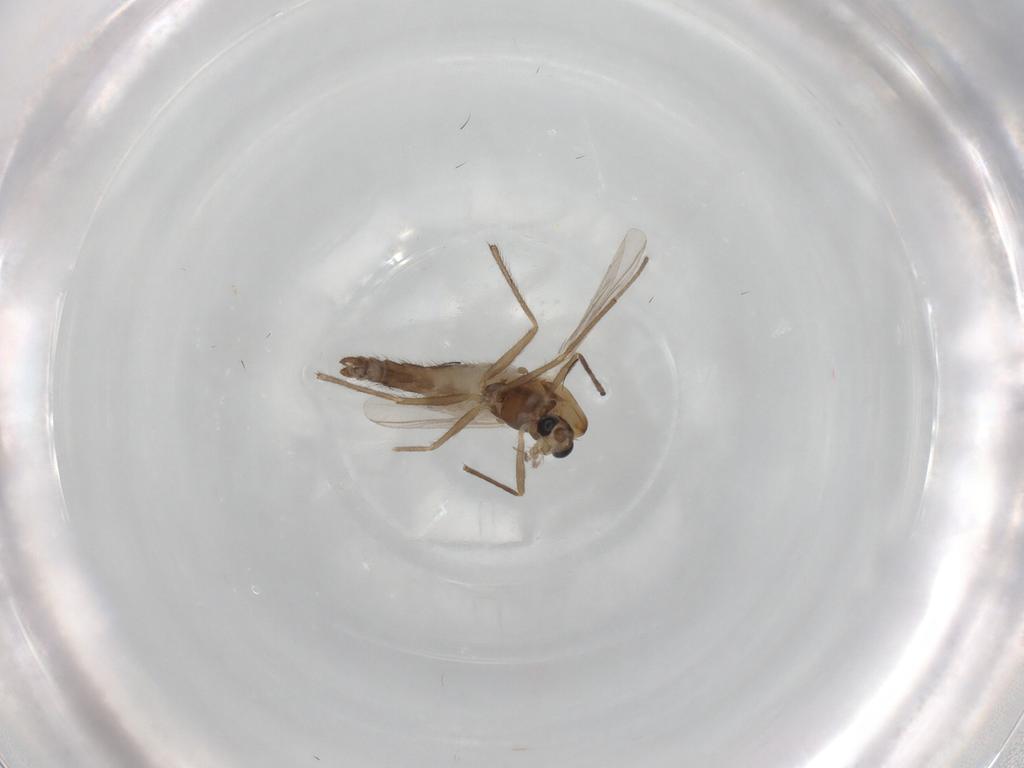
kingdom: Animalia
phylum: Arthropoda
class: Insecta
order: Diptera
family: Chironomidae
